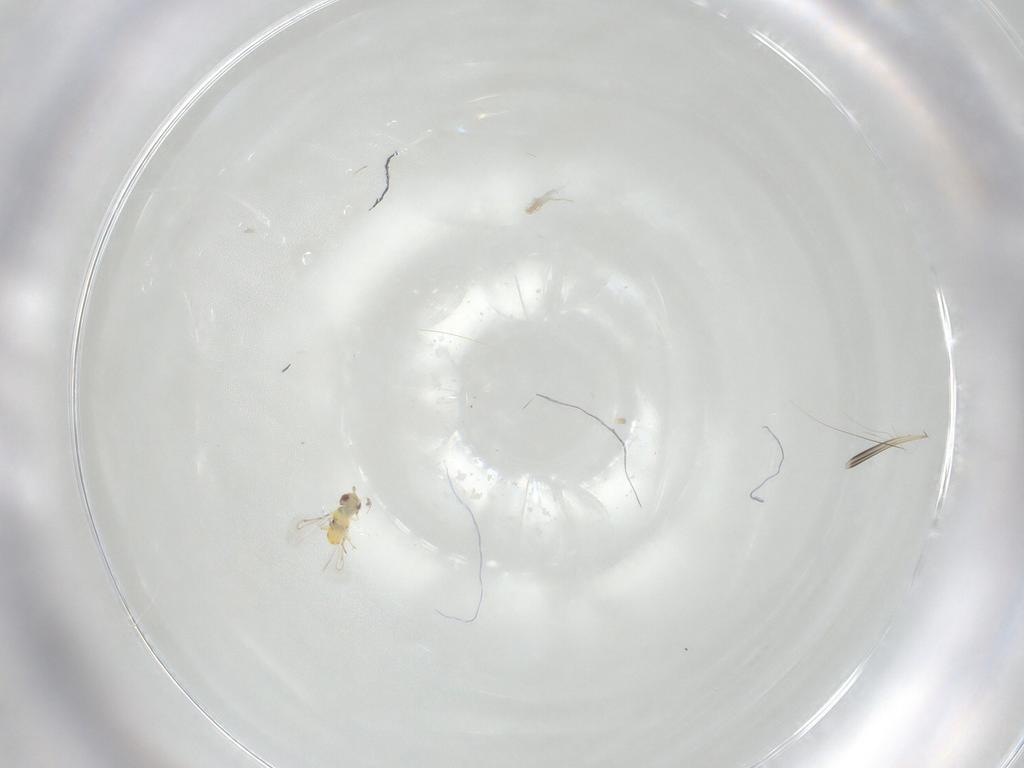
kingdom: Animalia
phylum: Arthropoda
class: Insecta
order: Hymenoptera
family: Eulophidae
